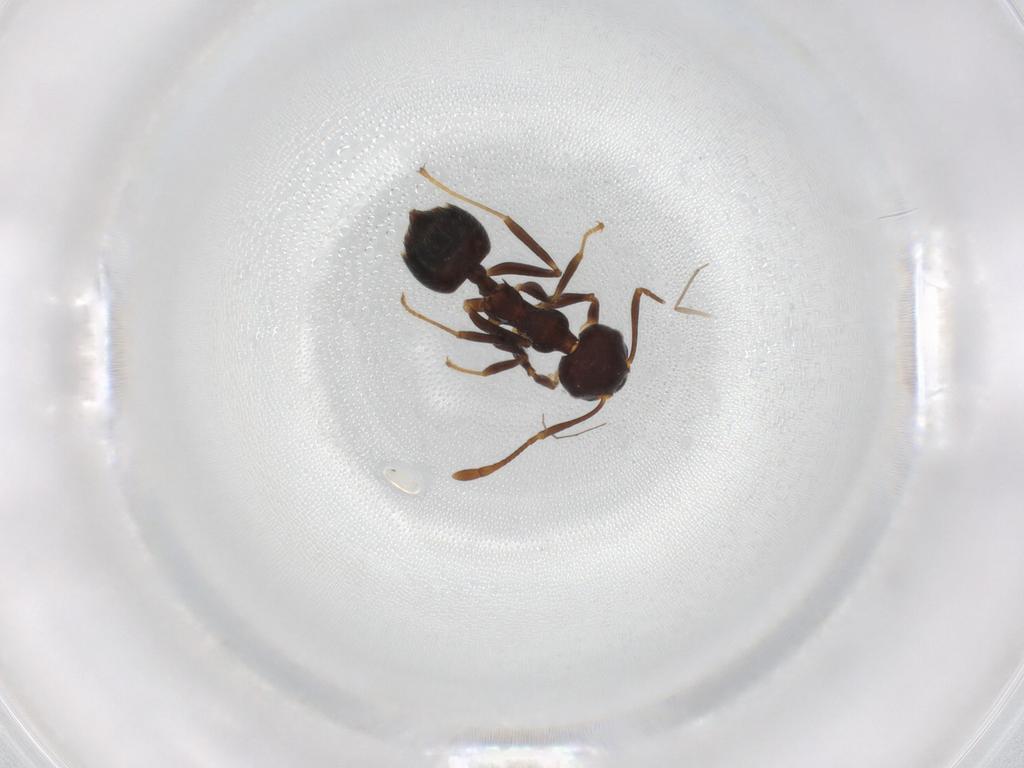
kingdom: Animalia
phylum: Arthropoda
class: Insecta
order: Hymenoptera
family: Formicidae
